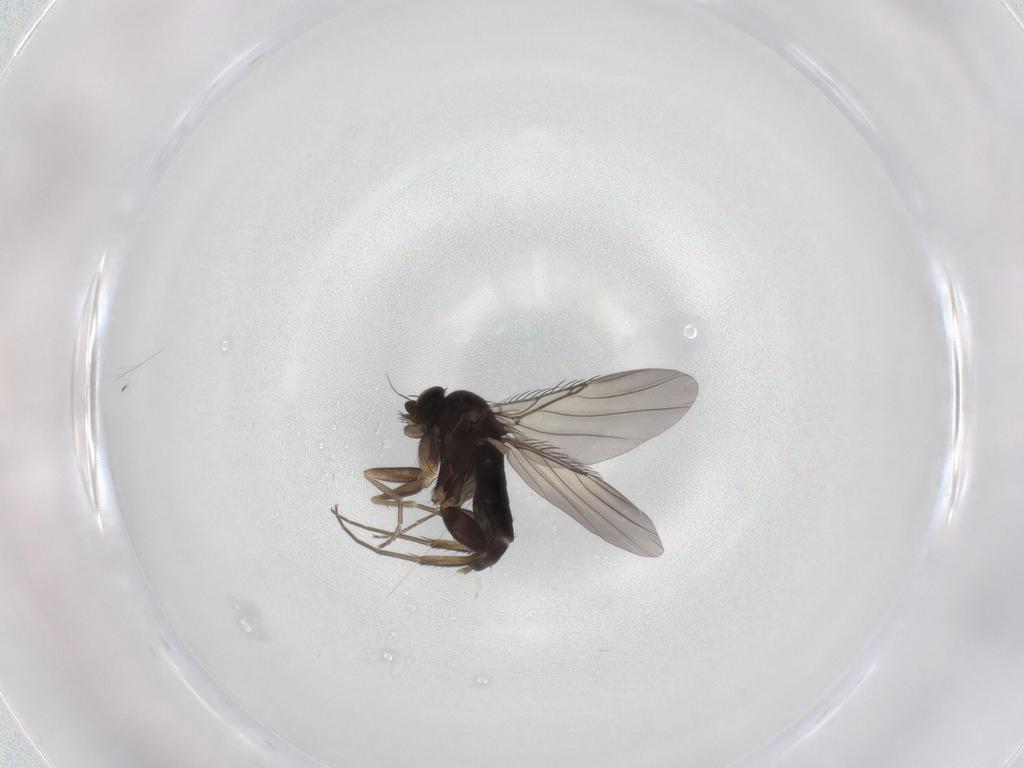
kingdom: Animalia
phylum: Arthropoda
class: Insecta
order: Diptera
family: Phoridae
